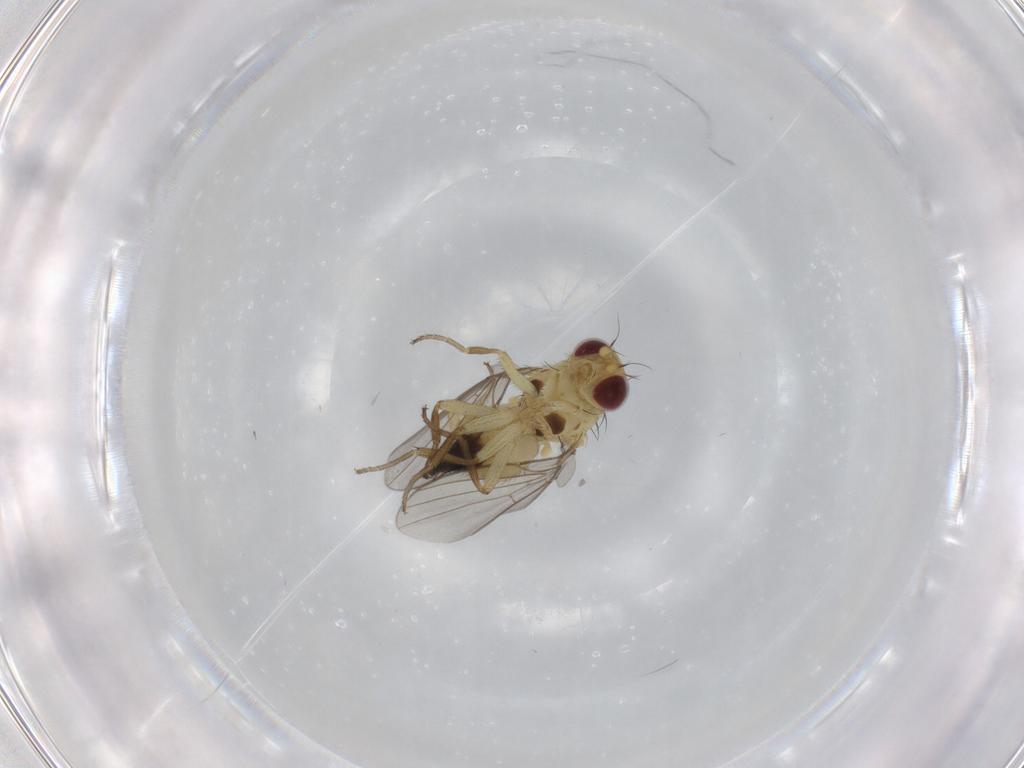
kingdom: Animalia
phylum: Arthropoda
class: Insecta
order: Diptera
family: Agromyzidae
